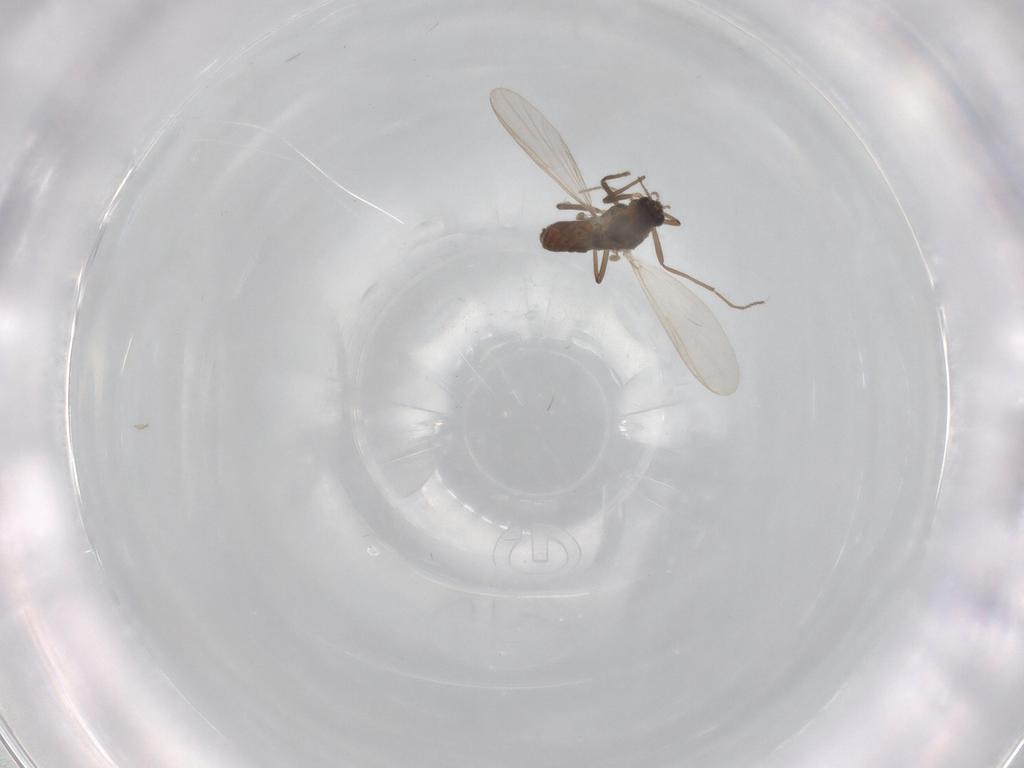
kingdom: Animalia
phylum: Arthropoda
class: Insecta
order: Diptera
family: Chironomidae
